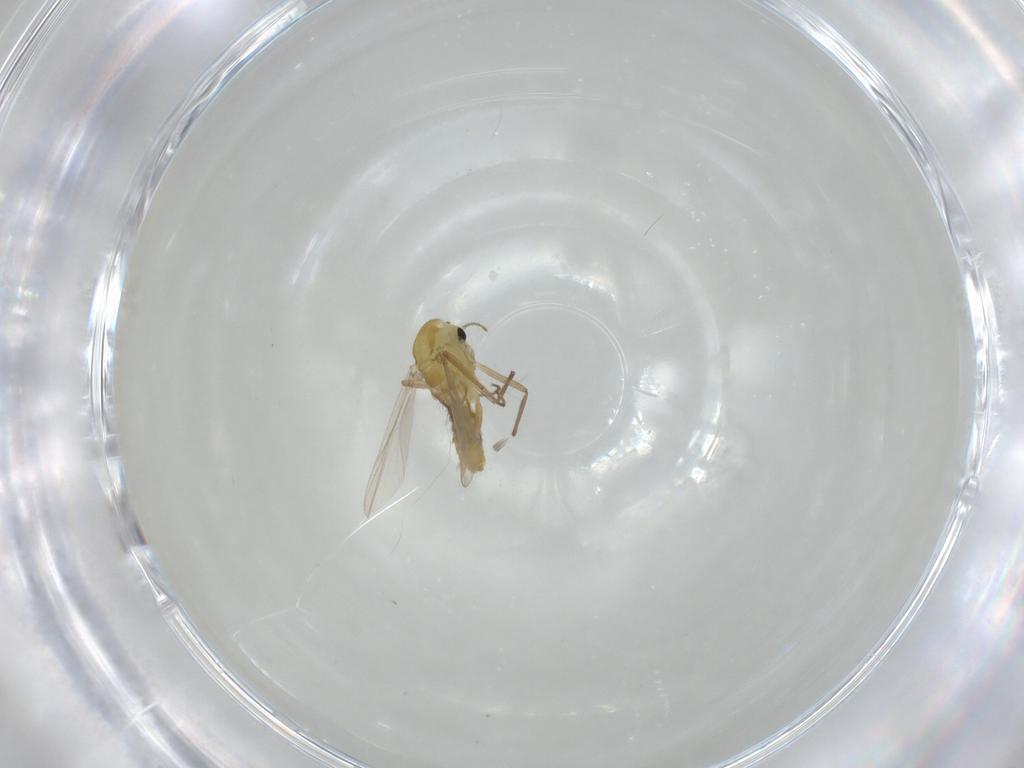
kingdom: Animalia
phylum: Arthropoda
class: Insecta
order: Diptera
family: Chironomidae
